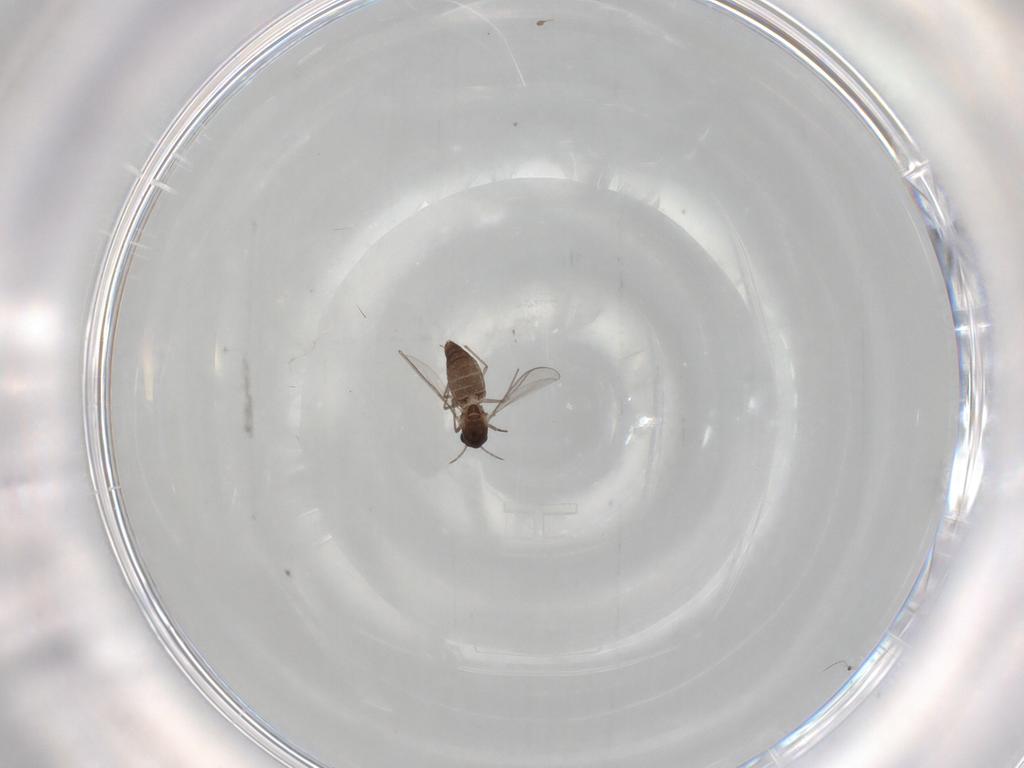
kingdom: Animalia
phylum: Arthropoda
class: Insecta
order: Diptera
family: Chironomidae
